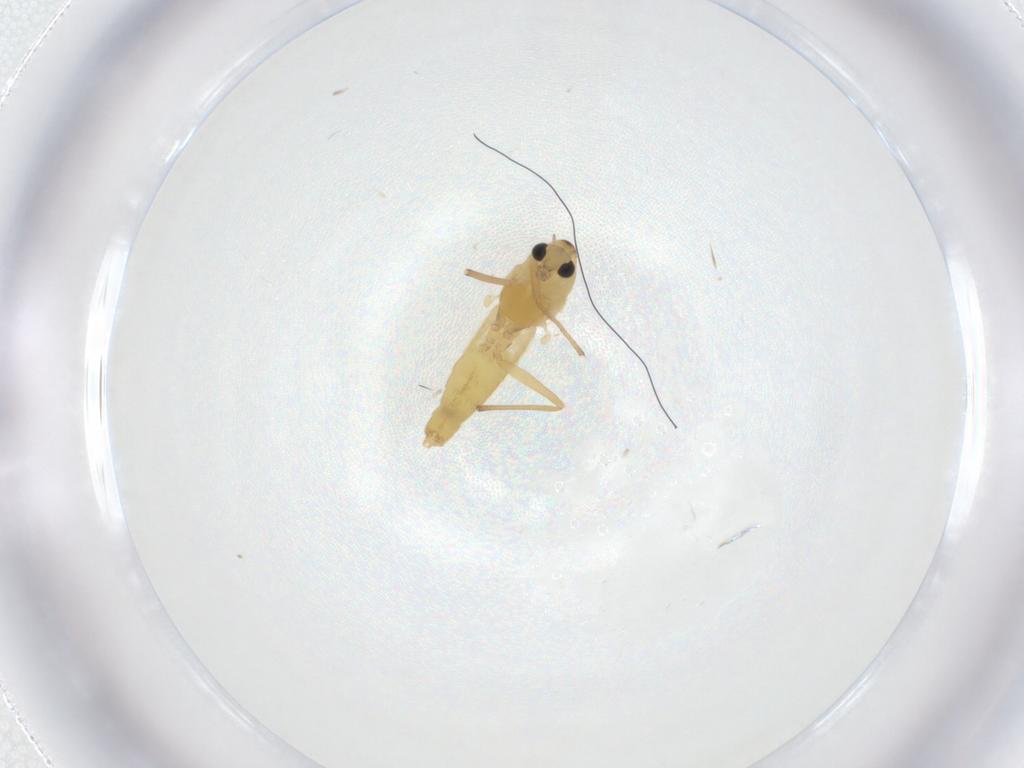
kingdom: Animalia
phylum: Arthropoda
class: Insecta
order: Diptera
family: Chironomidae
